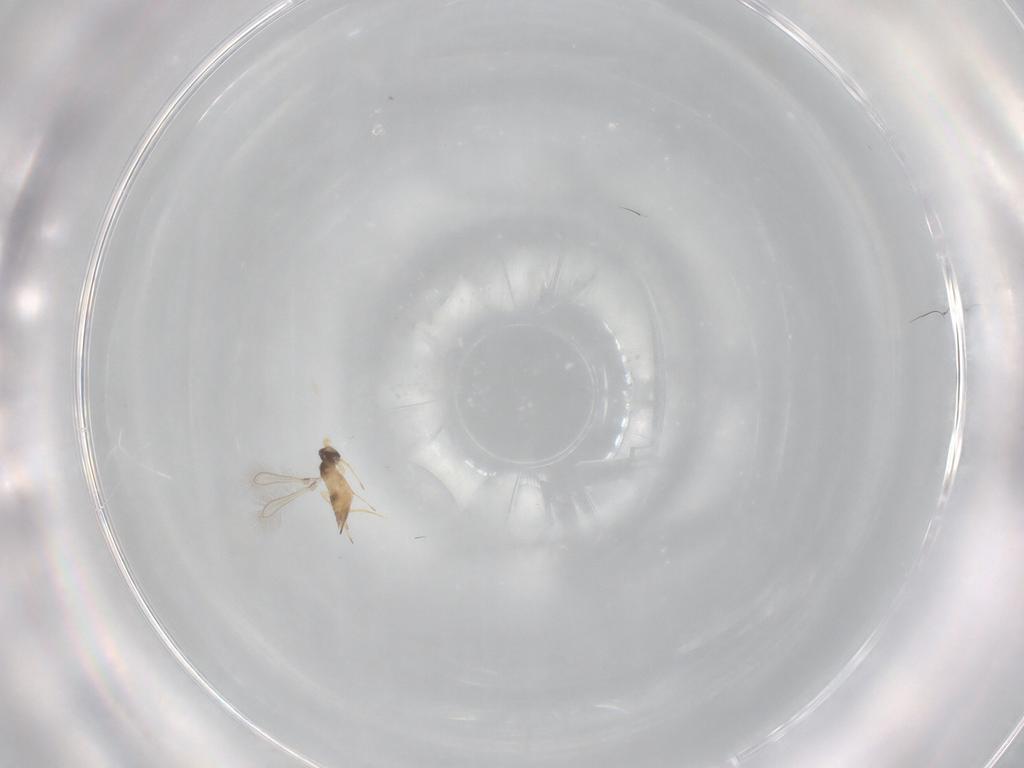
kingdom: Animalia
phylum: Arthropoda
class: Insecta
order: Hymenoptera
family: Mymaridae
